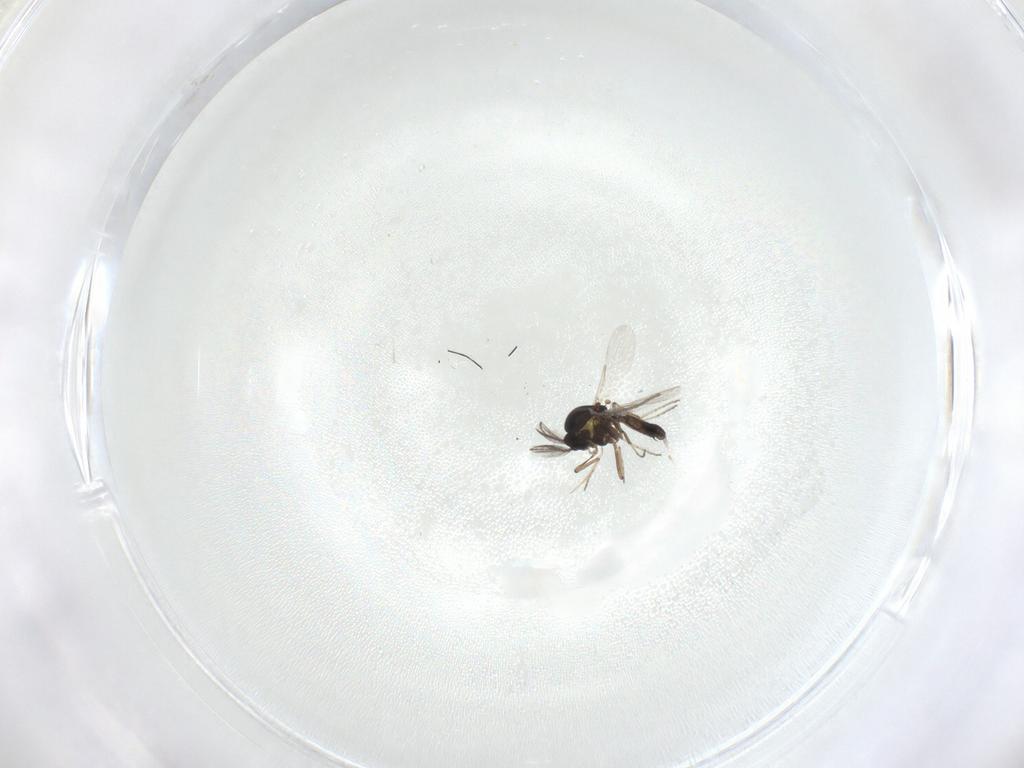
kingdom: Animalia
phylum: Arthropoda
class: Insecta
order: Diptera
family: Ceratopogonidae
